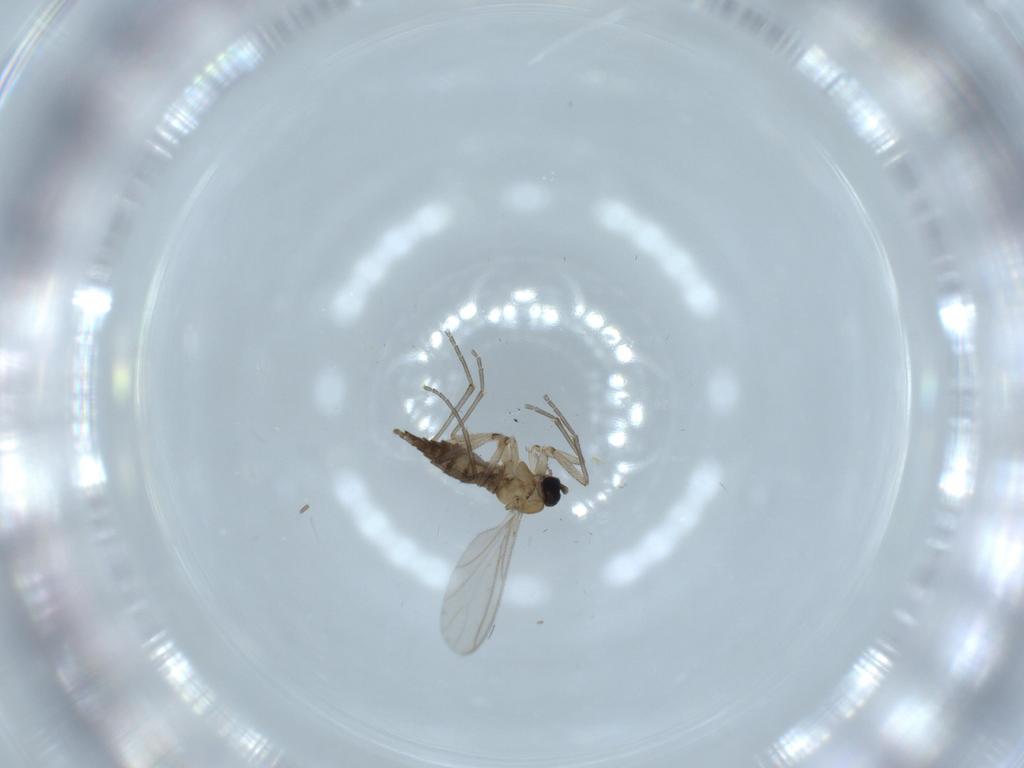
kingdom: Animalia
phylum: Arthropoda
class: Insecta
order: Diptera
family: Sciaridae
